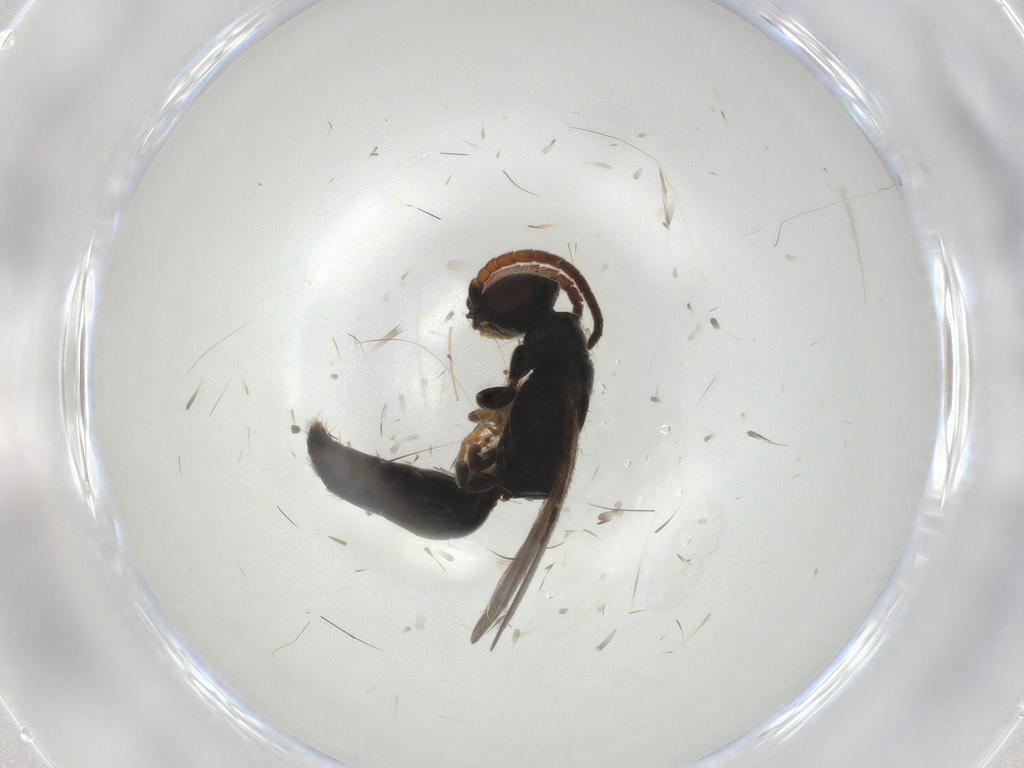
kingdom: Animalia
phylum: Arthropoda
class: Insecta
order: Hymenoptera
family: Bethylidae
